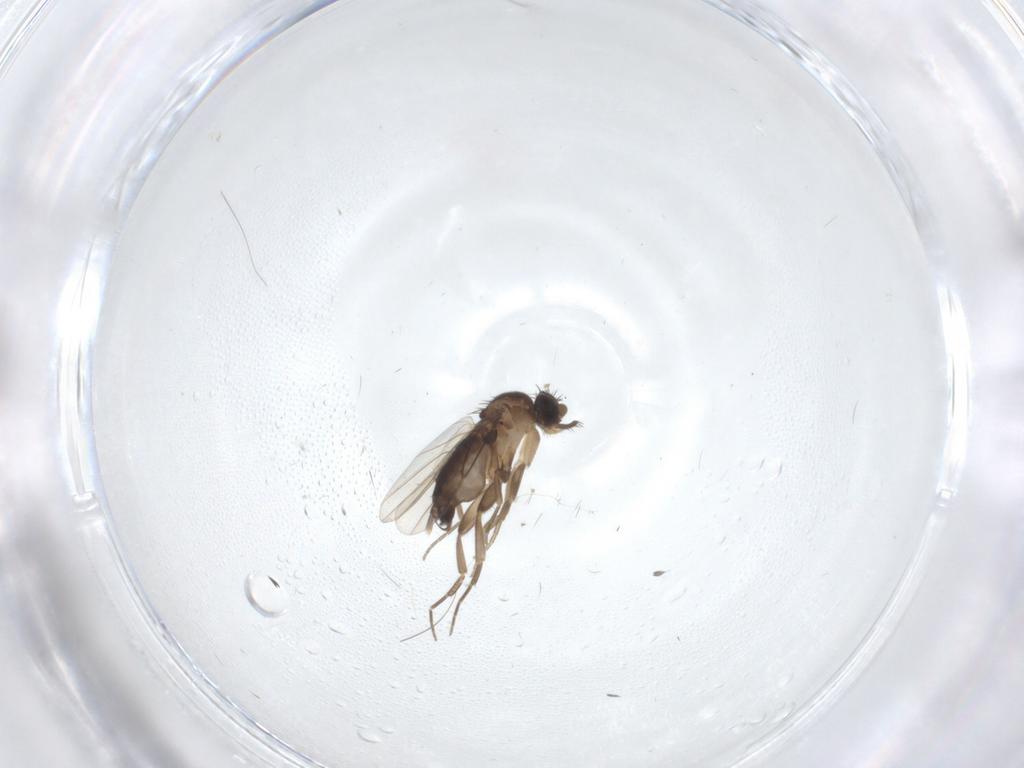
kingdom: Animalia
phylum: Arthropoda
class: Insecta
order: Diptera
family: Phoridae
